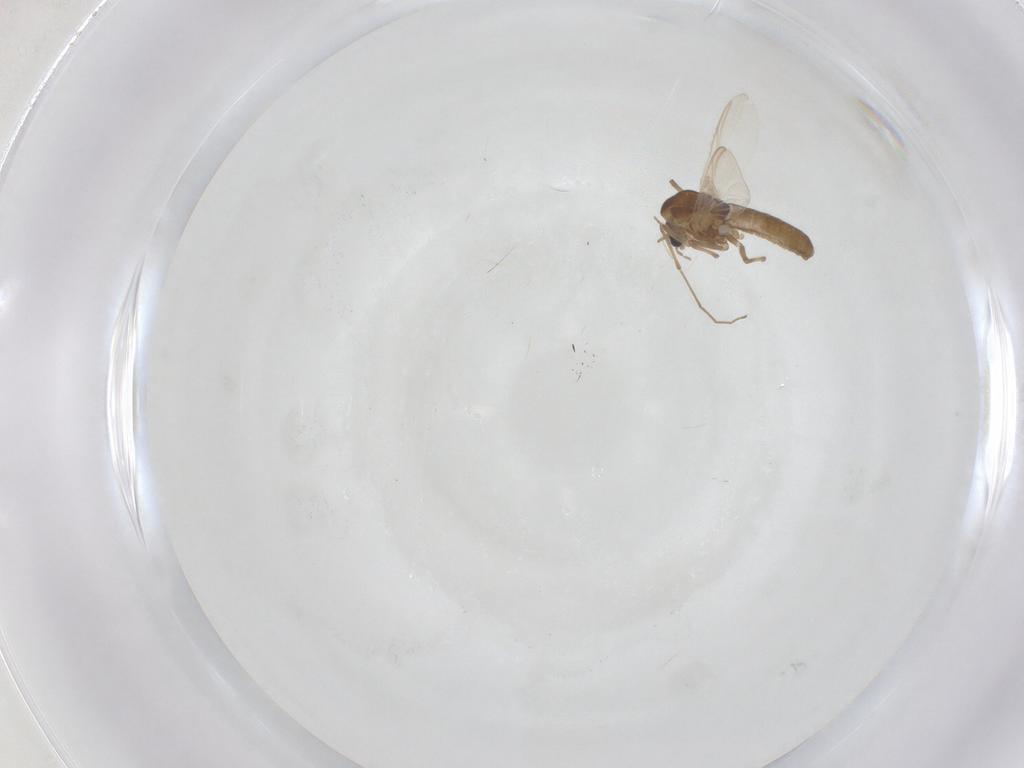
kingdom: Animalia
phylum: Arthropoda
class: Insecta
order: Diptera
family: Chironomidae
